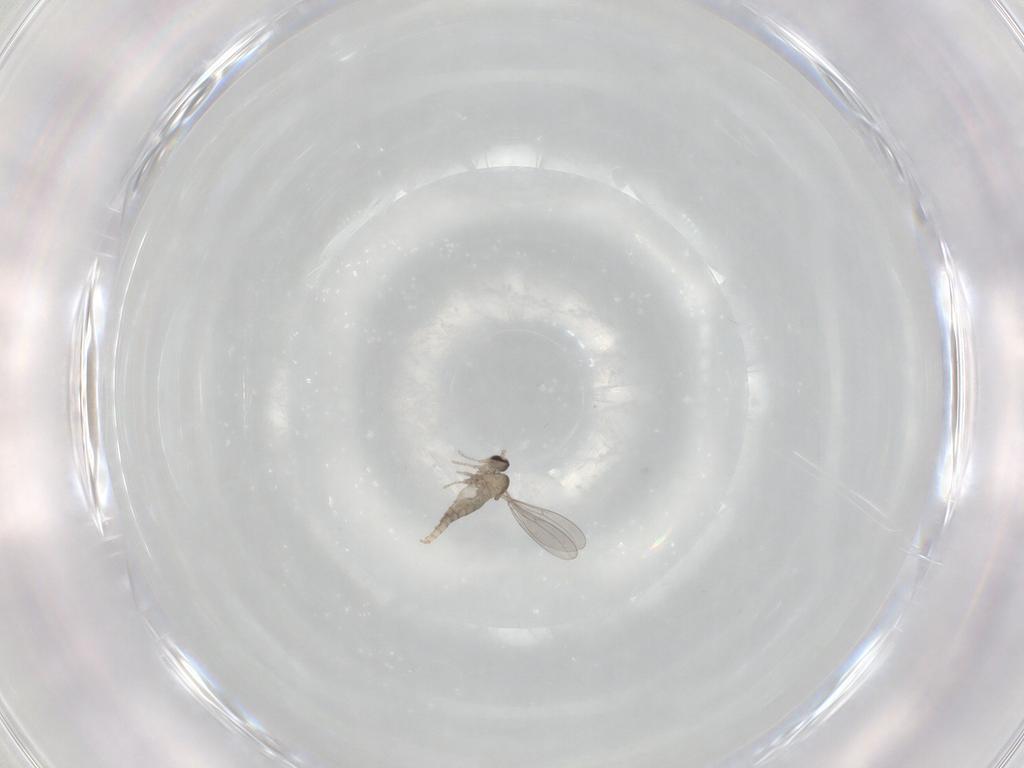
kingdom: Animalia
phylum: Arthropoda
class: Insecta
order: Diptera
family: Cecidomyiidae
